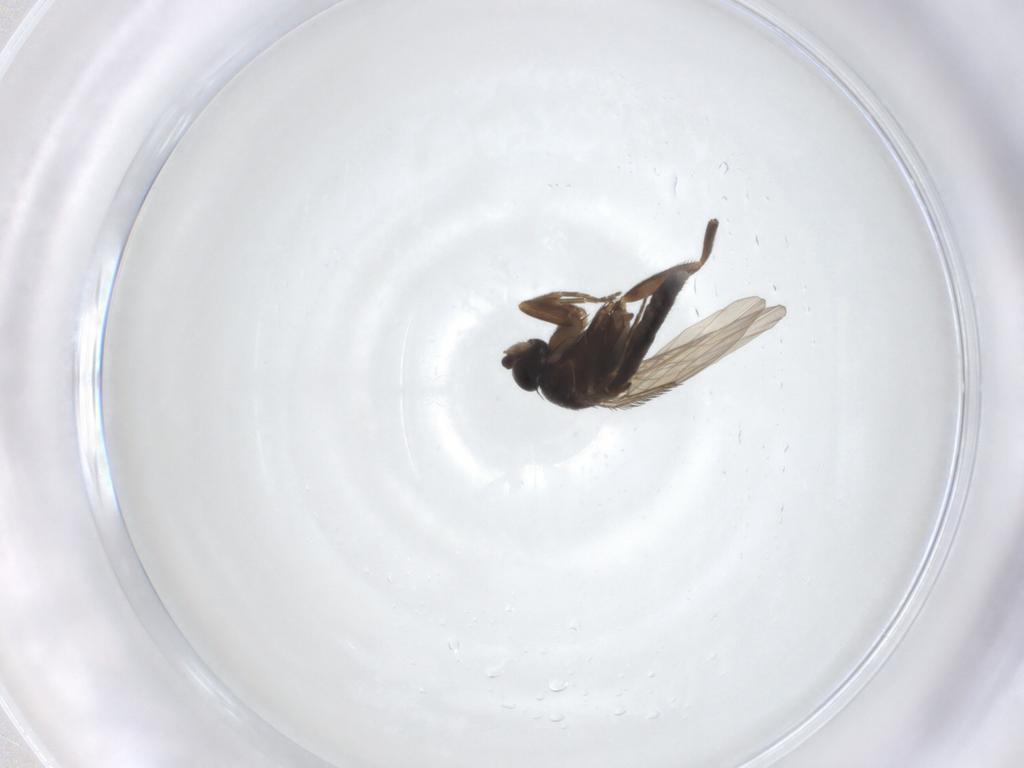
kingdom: Animalia
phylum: Arthropoda
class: Insecta
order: Diptera
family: Phoridae
